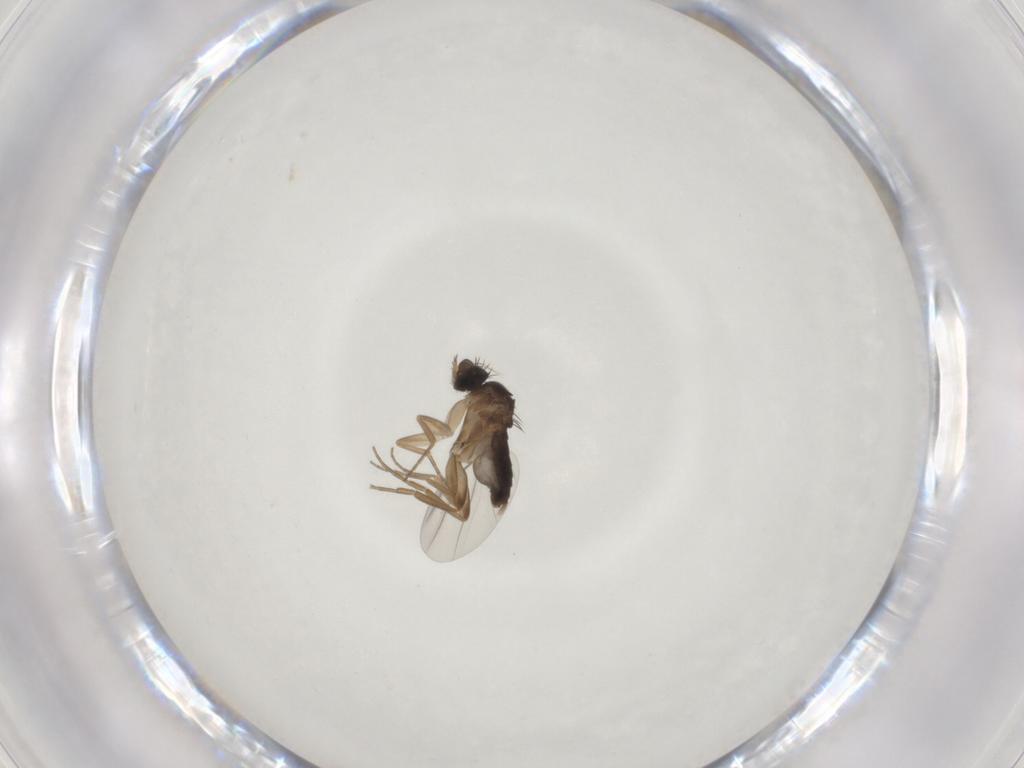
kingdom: Animalia
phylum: Arthropoda
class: Insecta
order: Diptera
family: Phoridae
